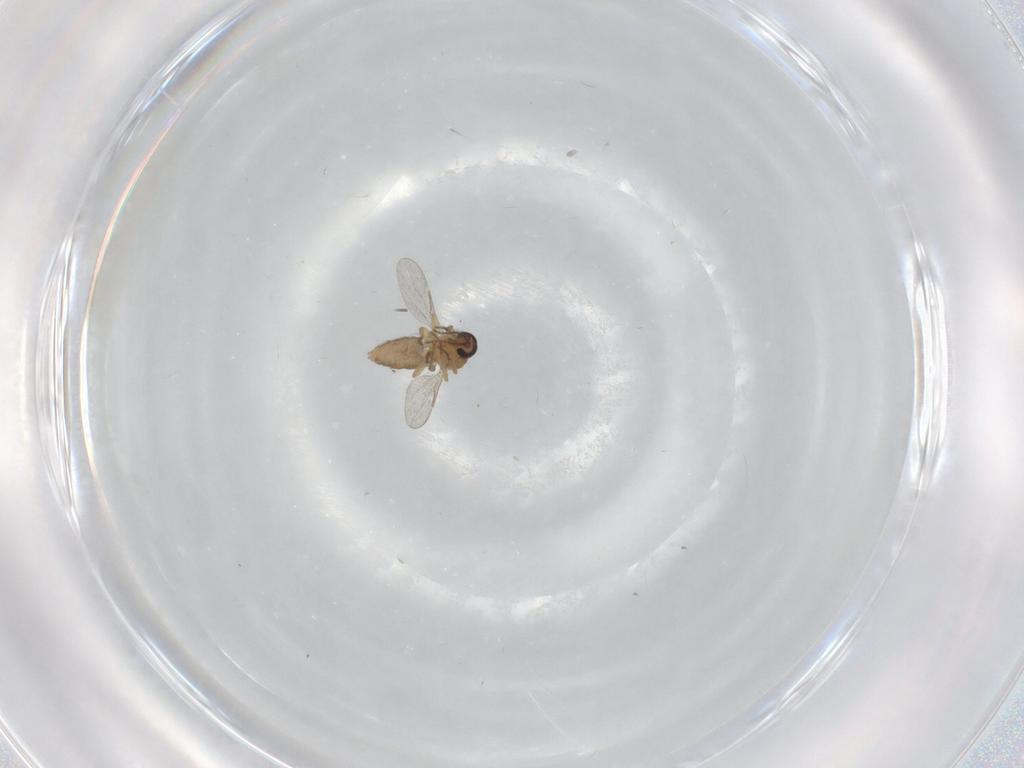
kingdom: Animalia
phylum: Arthropoda
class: Insecta
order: Diptera
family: Ceratopogonidae
